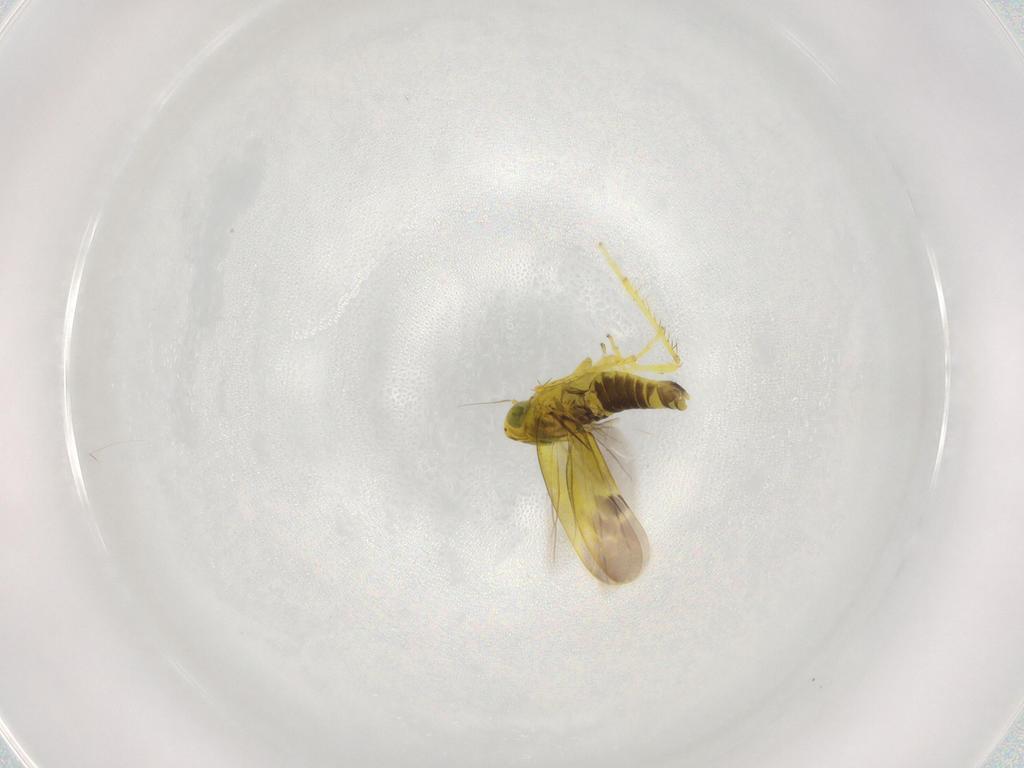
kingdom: Animalia
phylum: Arthropoda
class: Insecta
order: Hemiptera
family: Cicadellidae
